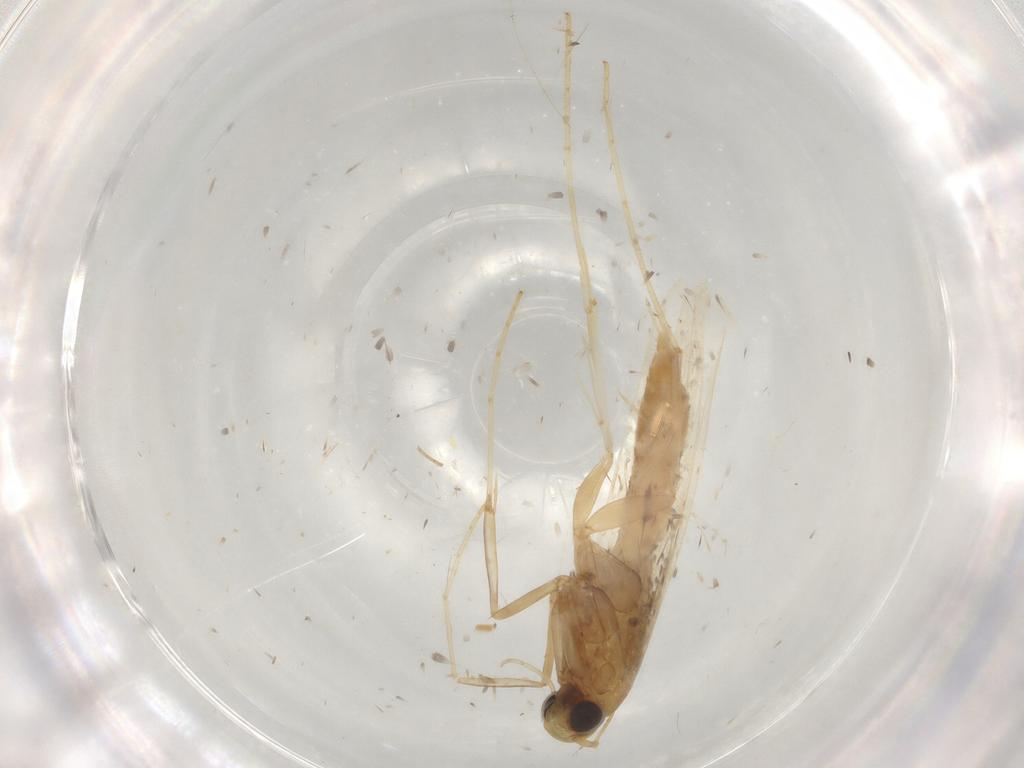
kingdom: Animalia
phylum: Arthropoda
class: Insecta
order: Lepidoptera
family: Gracillariidae
